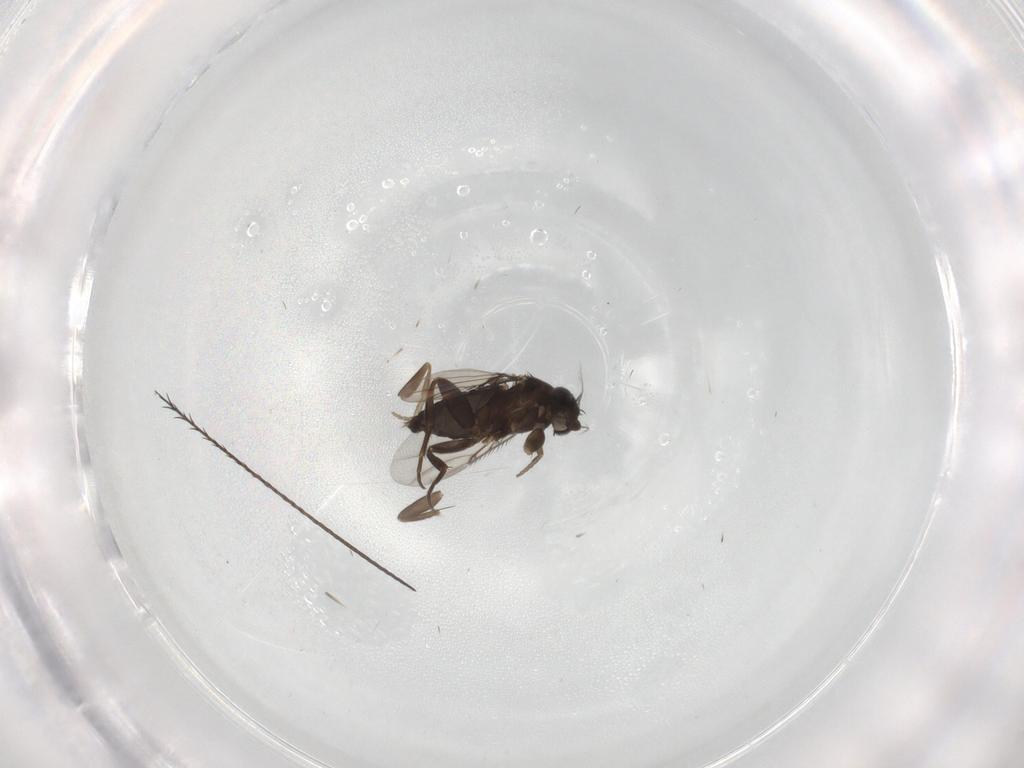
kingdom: Animalia
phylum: Arthropoda
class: Insecta
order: Diptera
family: Phoridae
